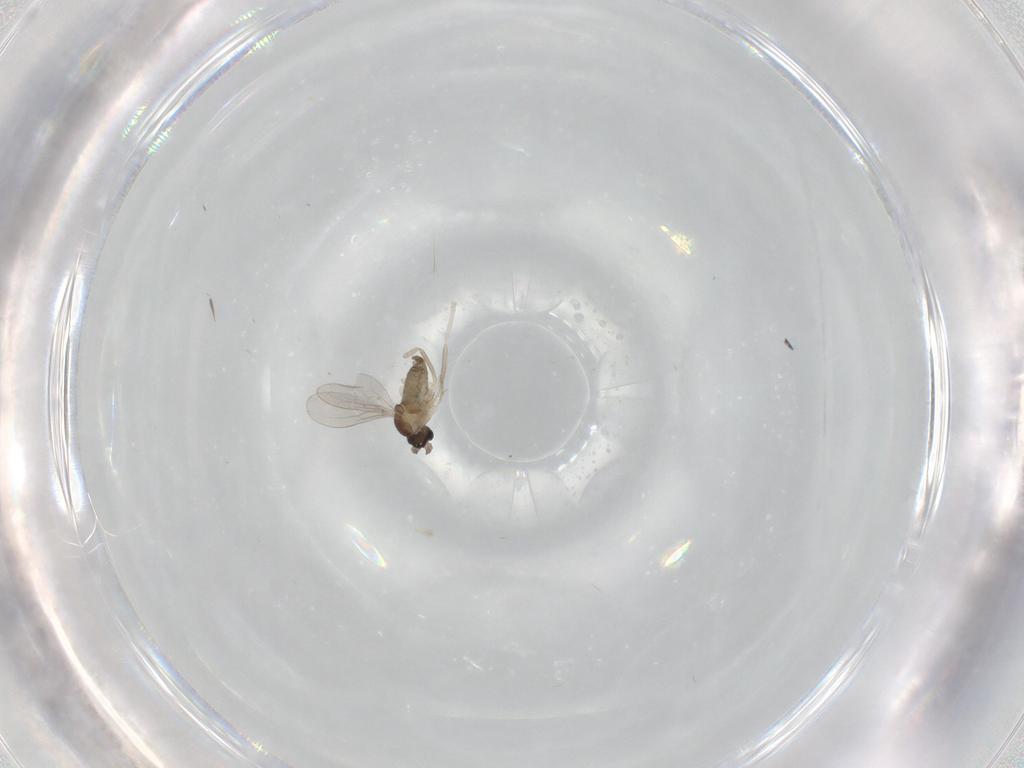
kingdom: Animalia
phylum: Arthropoda
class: Insecta
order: Diptera
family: Cecidomyiidae
